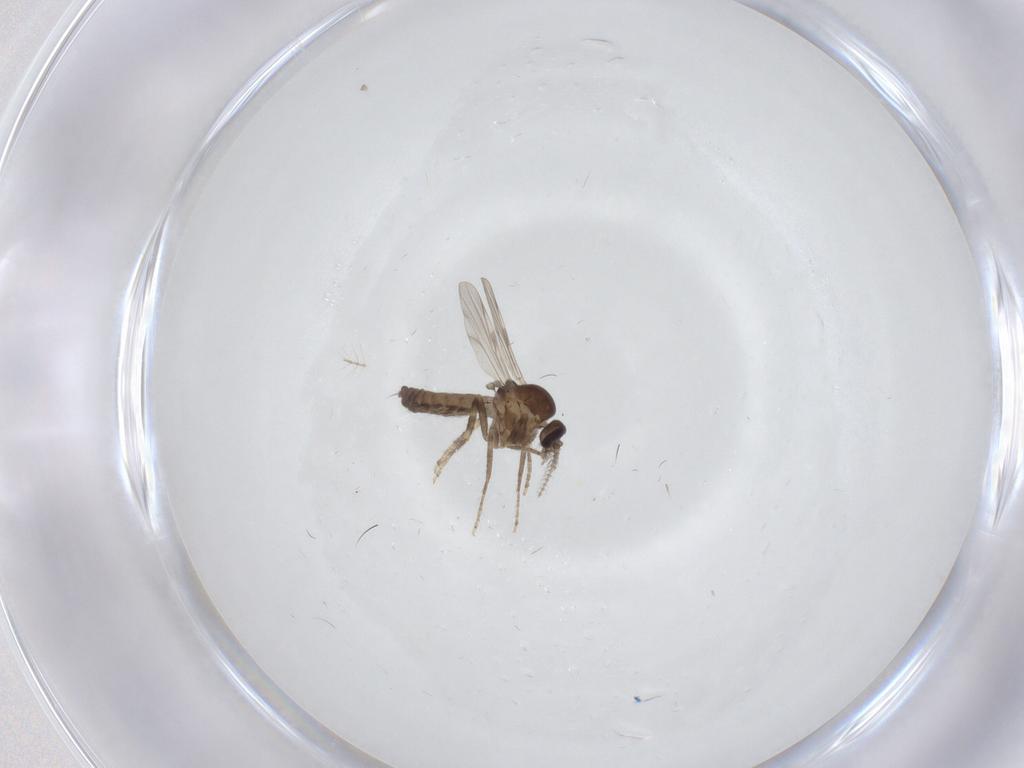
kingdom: Animalia
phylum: Arthropoda
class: Insecta
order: Diptera
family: Ceratopogonidae
